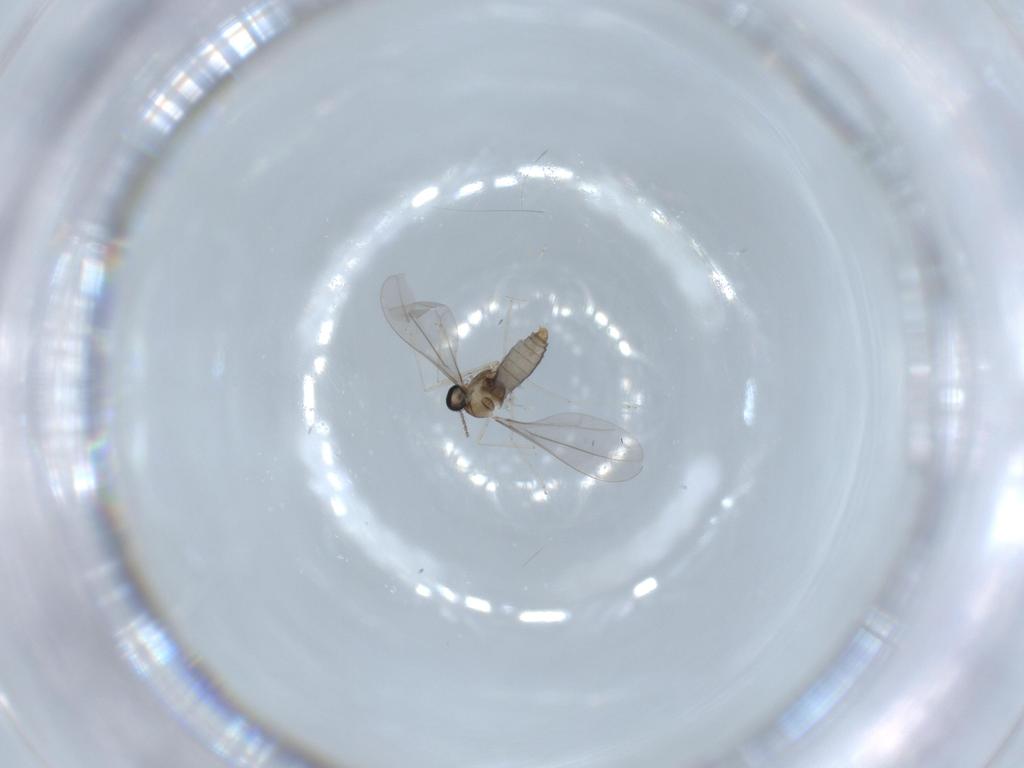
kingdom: Animalia
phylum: Arthropoda
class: Insecta
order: Diptera
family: Cecidomyiidae
